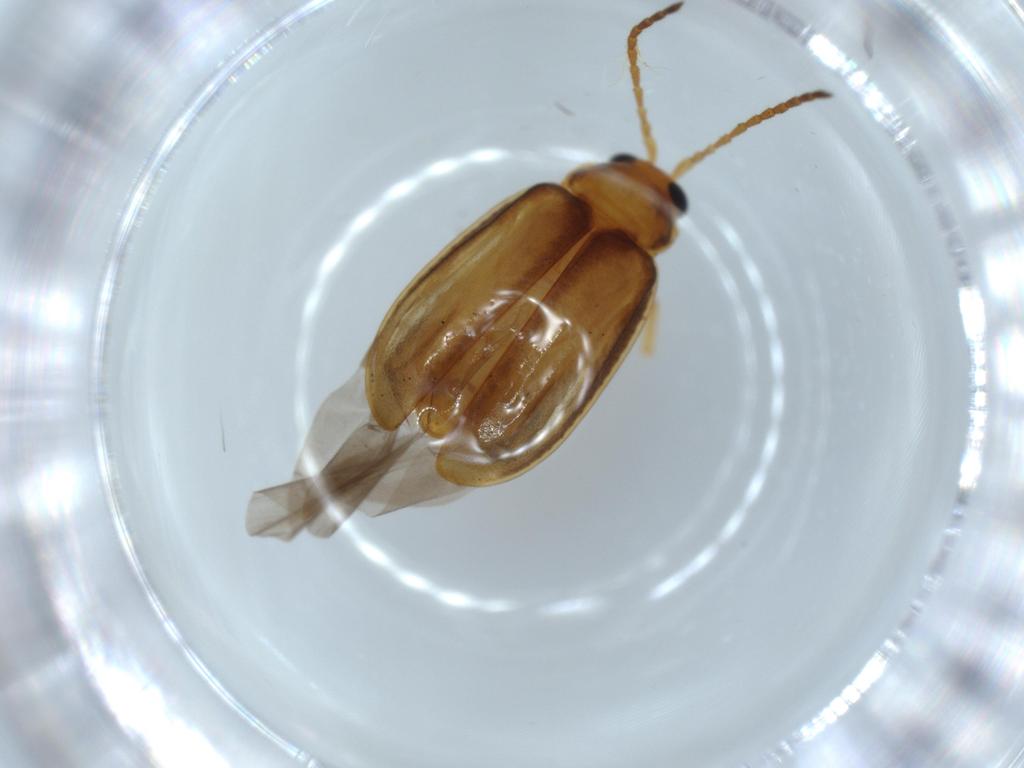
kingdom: Animalia
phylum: Arthropoda
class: Insecta
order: Coleoptera
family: Chrysomelidae
